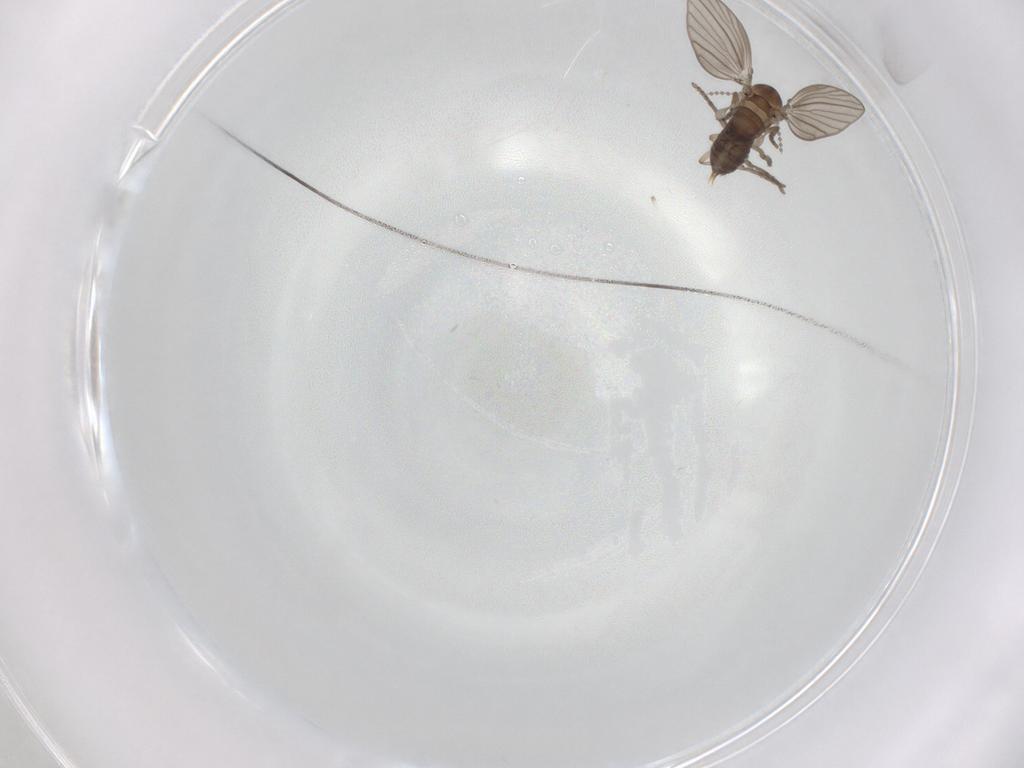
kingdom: Animalia
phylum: Arthropoda
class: Insecta
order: Diptera
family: Psychodidae
